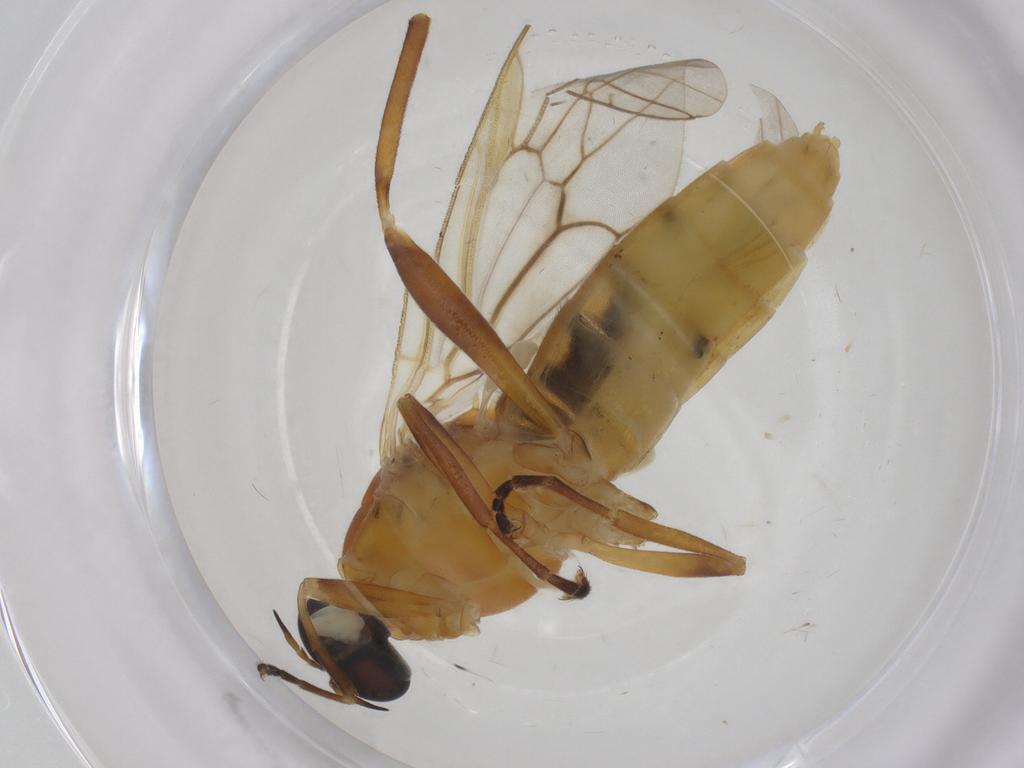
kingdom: Animalia
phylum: Arthropoda
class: Insecta
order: Diptera
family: Stratiomyidae
